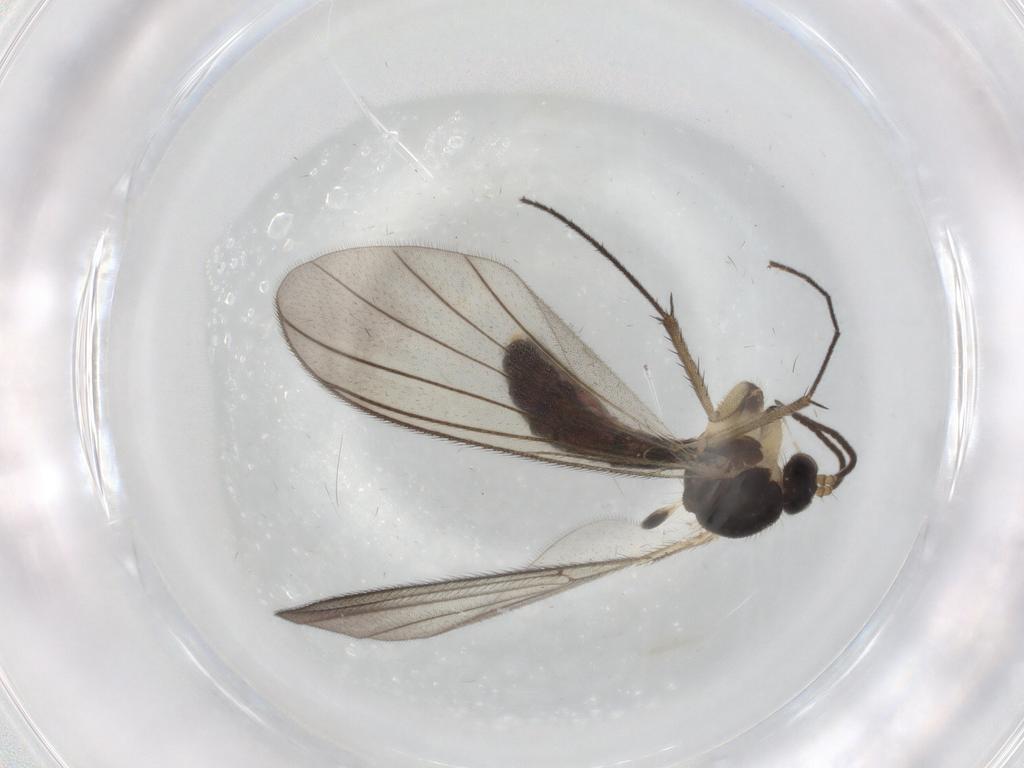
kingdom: Animalia
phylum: Arthropoda
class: Insecta
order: Diptera
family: Mycetophilidae
